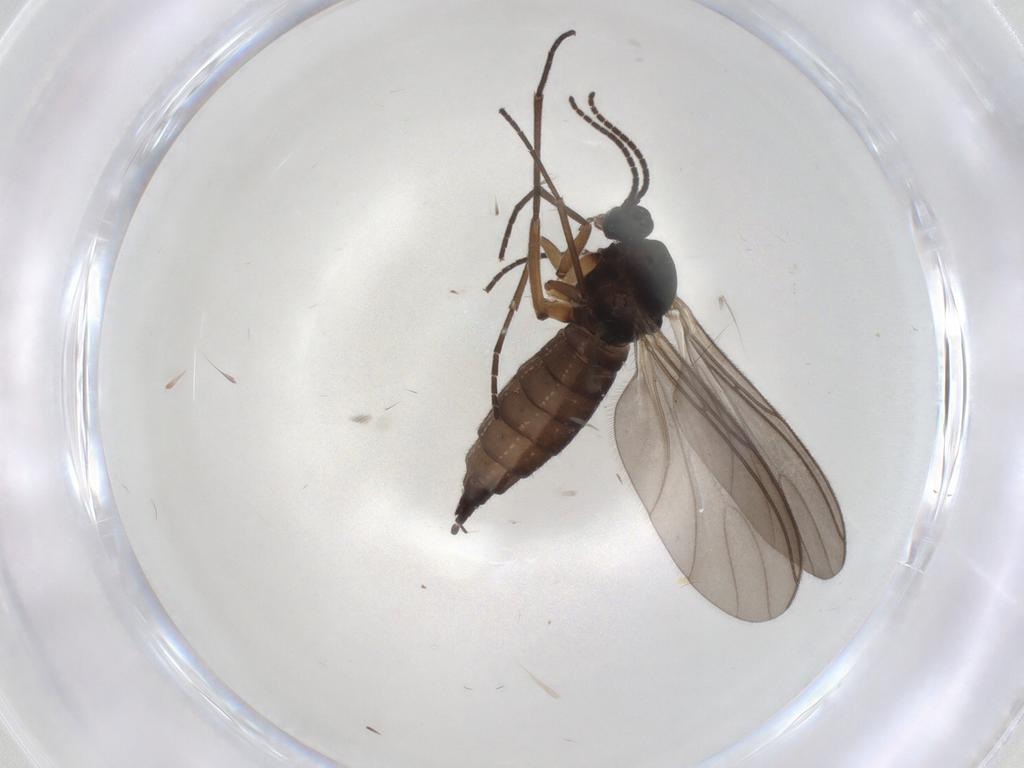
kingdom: Animalia
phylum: Arthropoda
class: Insecta
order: Diptera
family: Sciaridae
